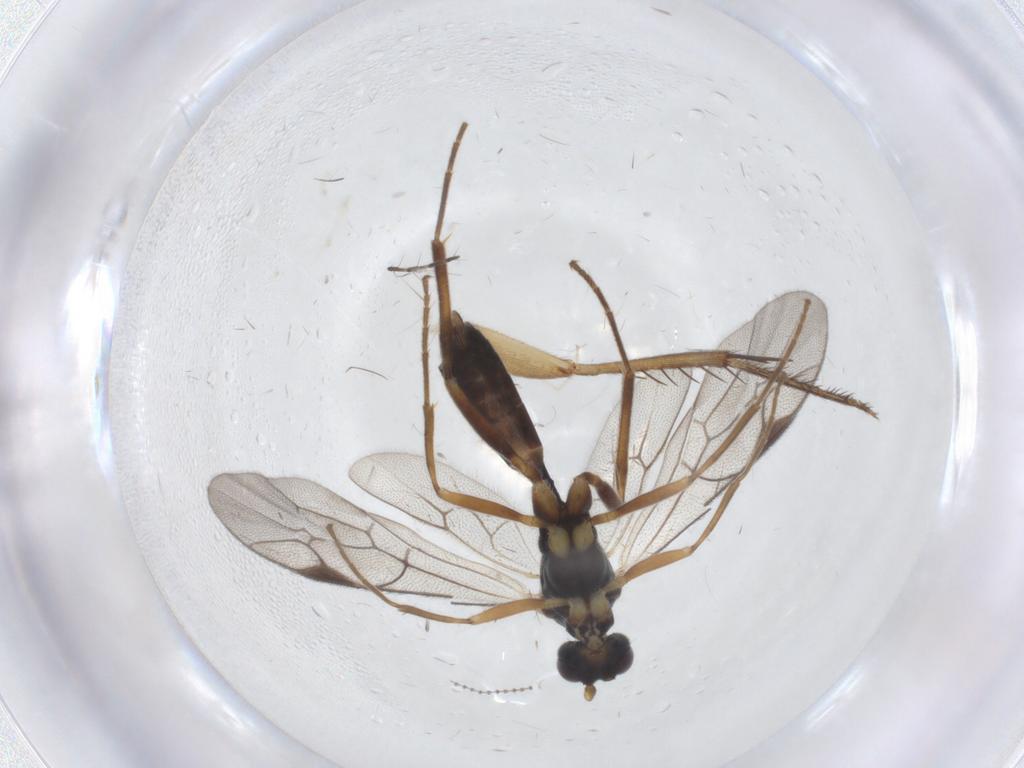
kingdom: Animalia
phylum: Arthropoda
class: Insecta
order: Hymenoptera
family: Ichneumonidae
